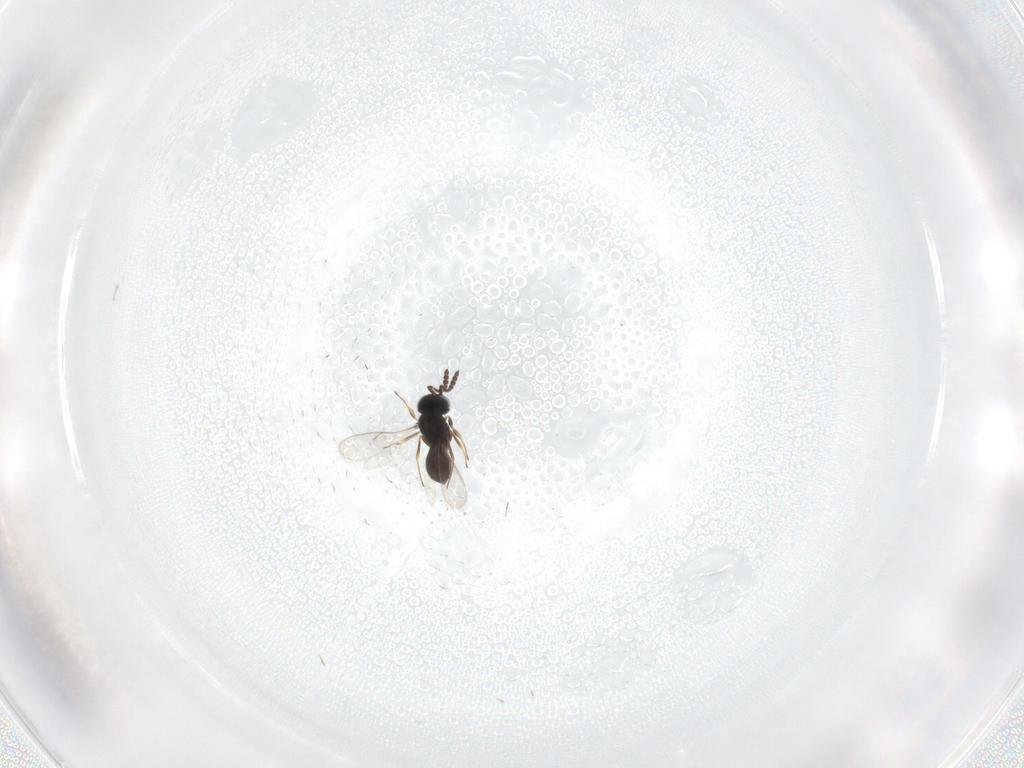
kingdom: Animalia
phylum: Arthropoda
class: Insecta
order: Hymenoptera
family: Scelionidae
